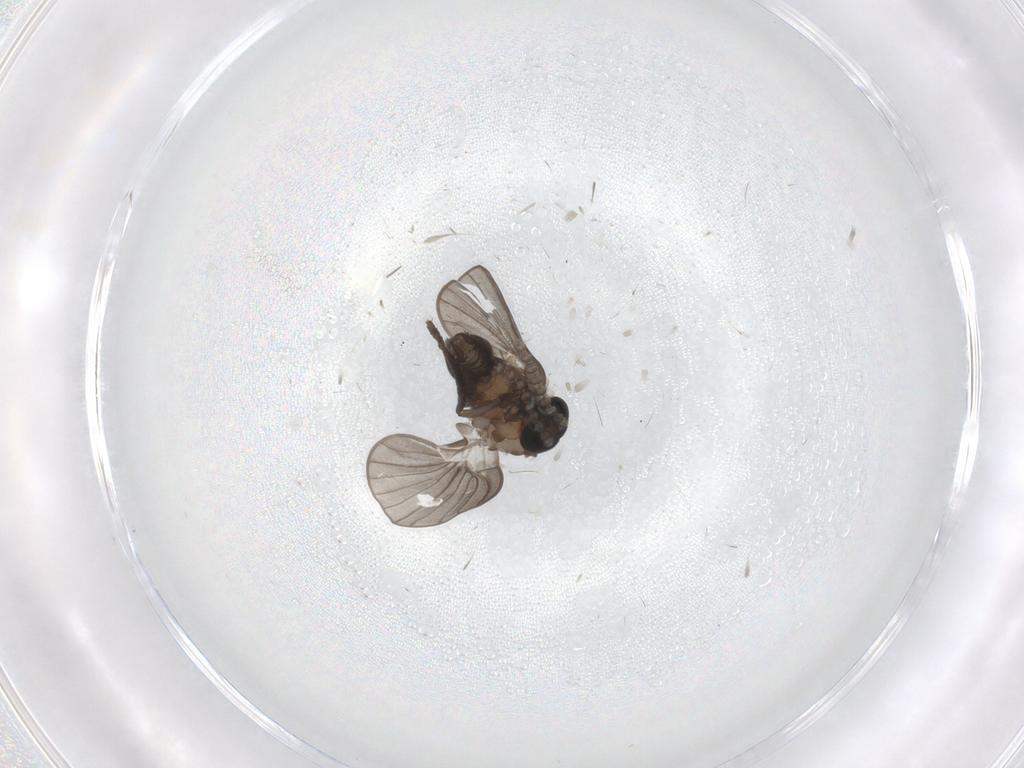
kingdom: Animalia
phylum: Arthropoda
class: Insecta
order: Diptera
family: Psychodidae
